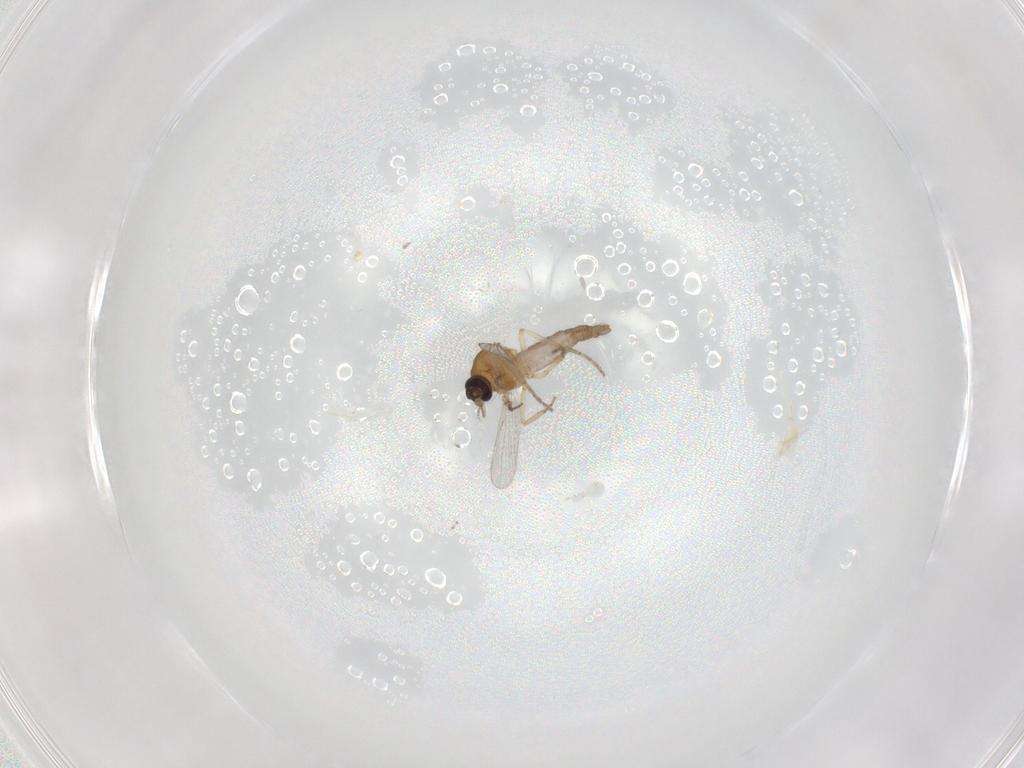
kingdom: Animalia
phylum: Arthropoda
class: Insecta
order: Diptera
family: Ceratopogonidae
